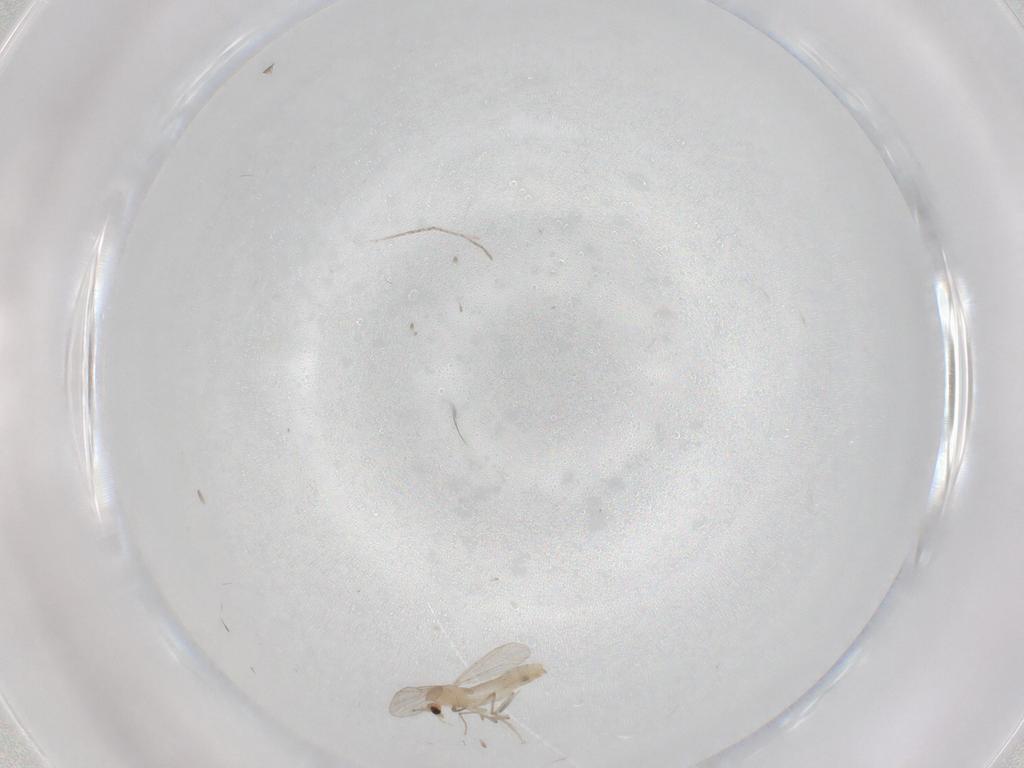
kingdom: Animalia
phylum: Arthropoda
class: Insecta
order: Diptera
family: Chironomidae
